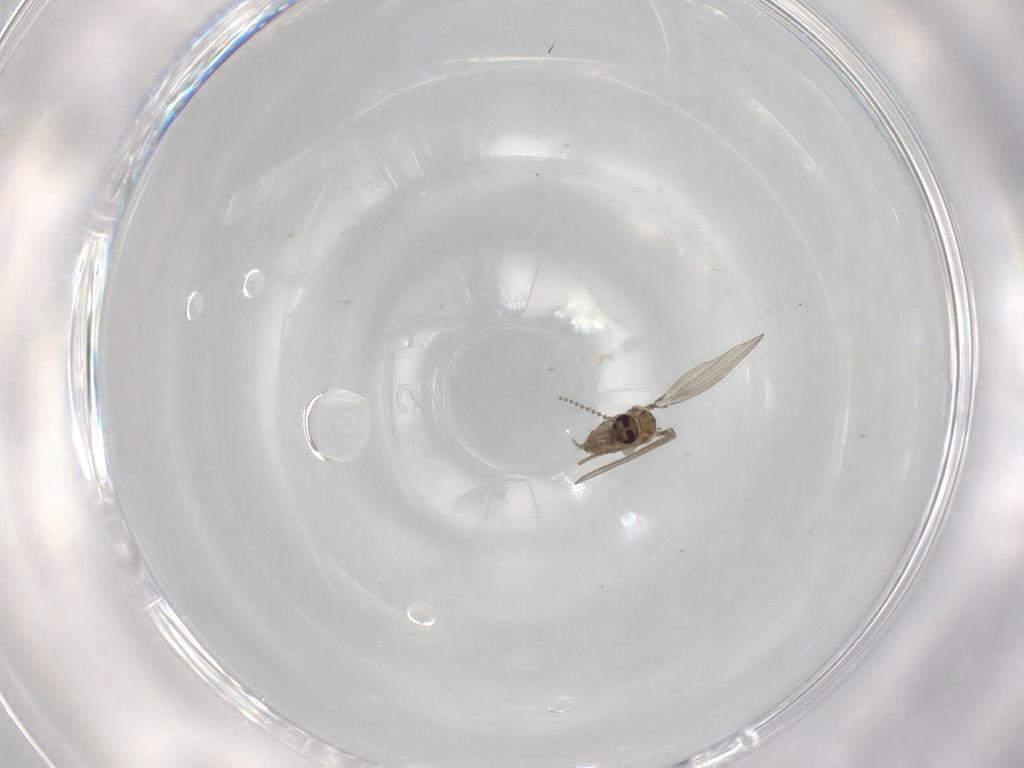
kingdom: Animalia
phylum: Arthropoda
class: Insecta
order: Diptera
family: Psychodidae
